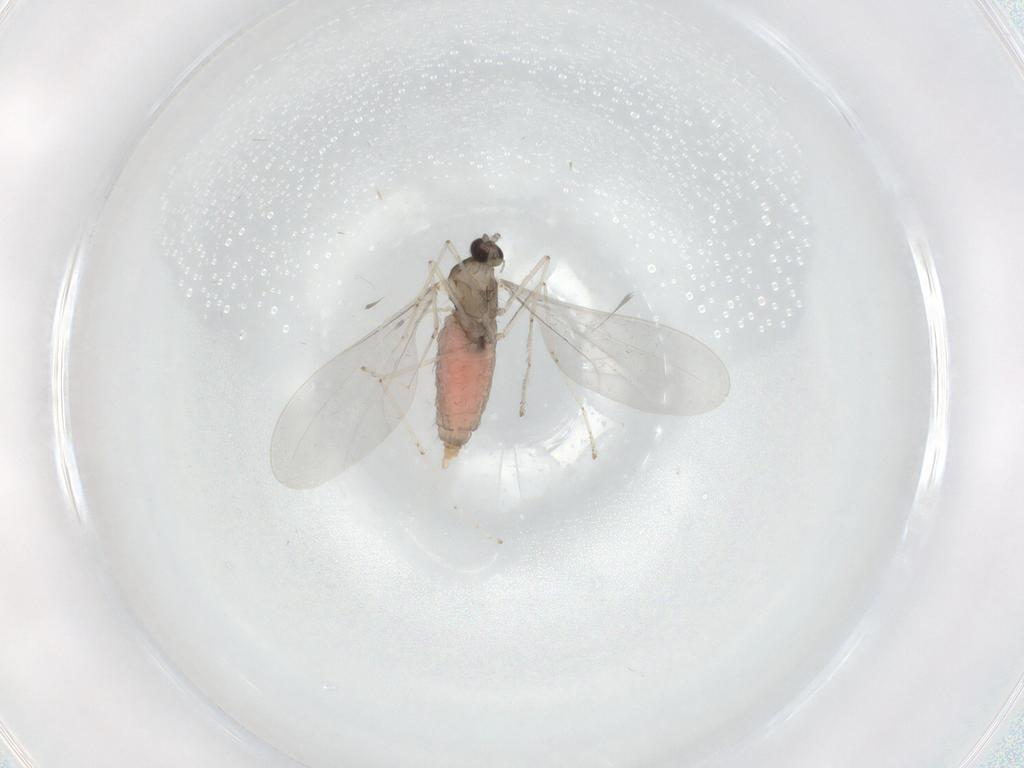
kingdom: Animalia
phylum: Arthropoda
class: Insecta
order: Diptera
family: Cecidomyiidae
